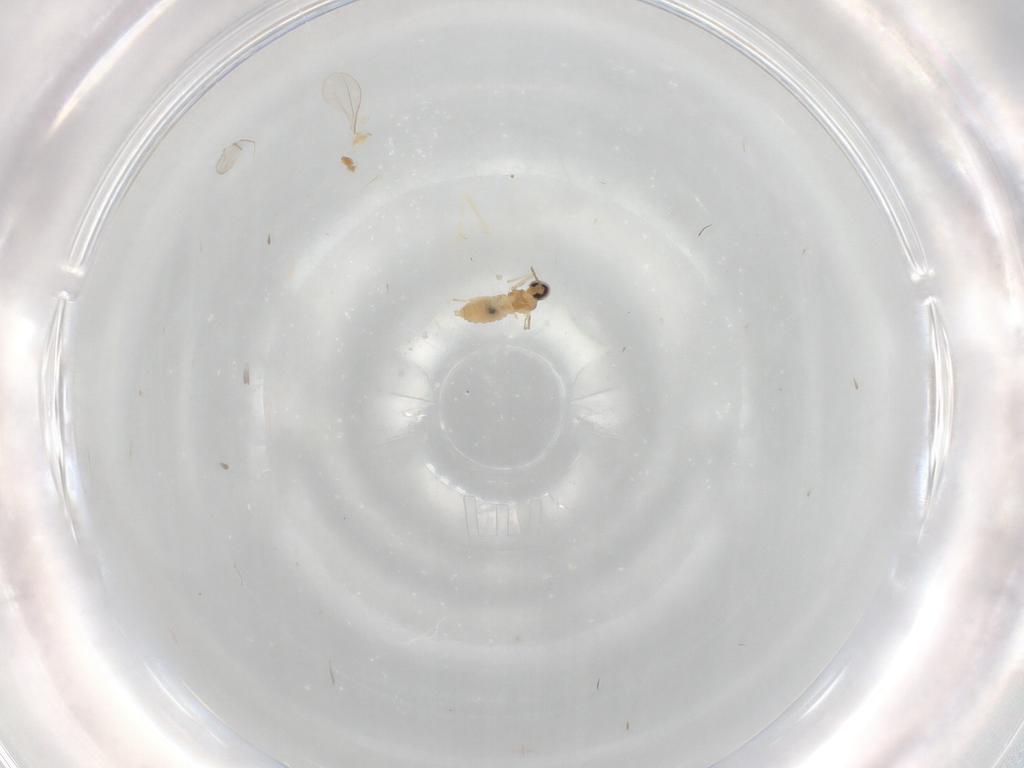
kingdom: Animalia
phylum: Arthropoda
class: Insecta
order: Diptera
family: Cecidomyiidae
